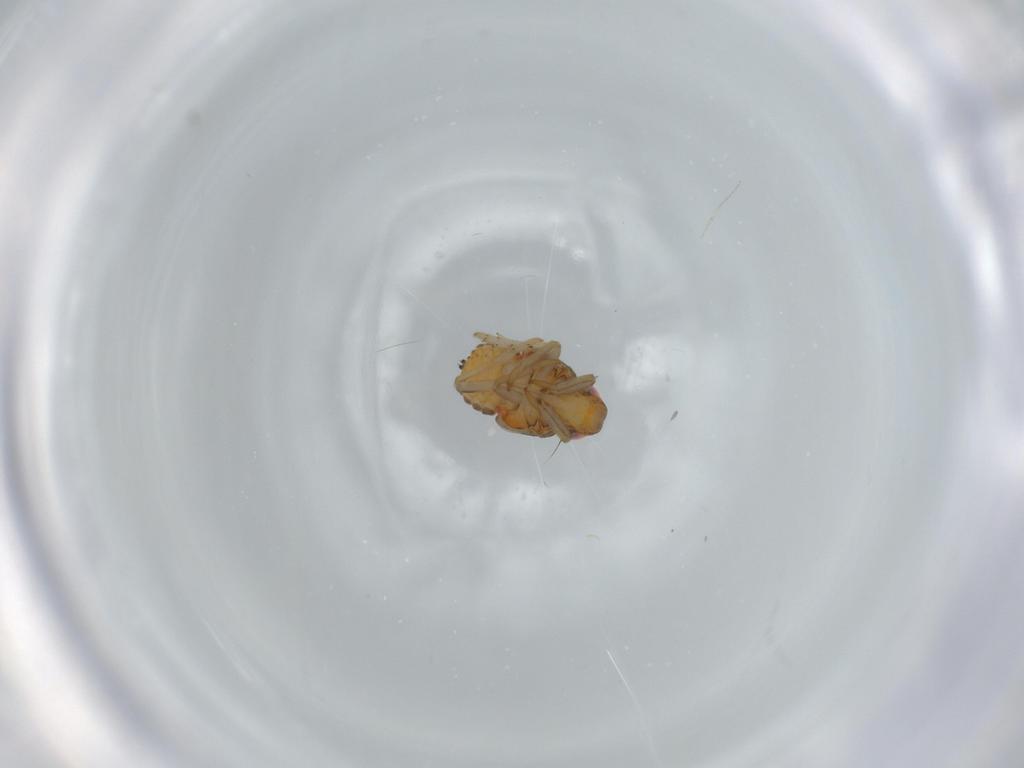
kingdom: Animalia
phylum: Arthropoda
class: Insecta
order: Hemiptera
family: Issidae
